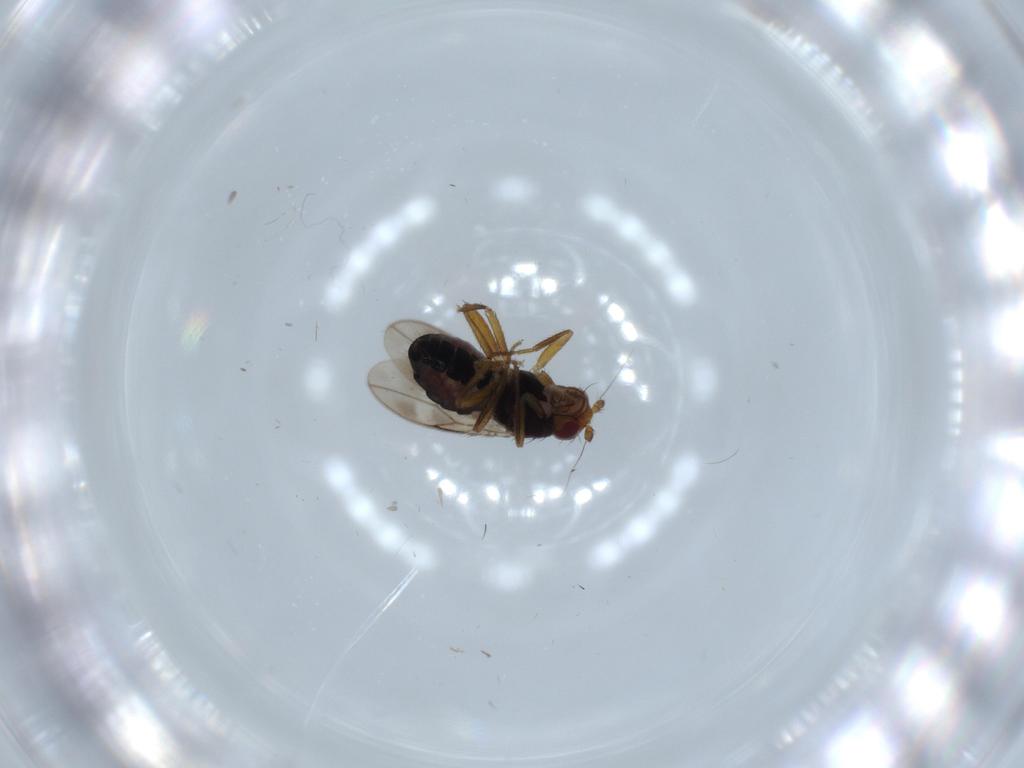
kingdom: Animalia
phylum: Arthropoda
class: Insecta
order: Diptera
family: Sphaeroceridae
